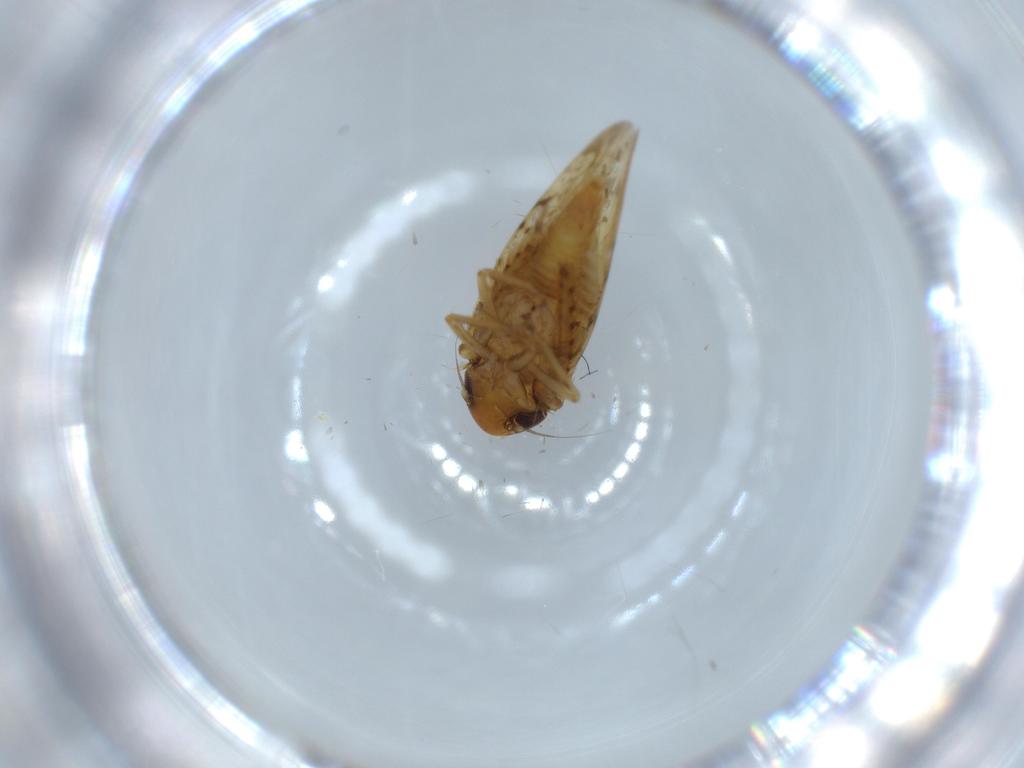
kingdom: Animalia
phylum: Arthropoda
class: Insecta
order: Hemiptera
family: Cicadellidae
